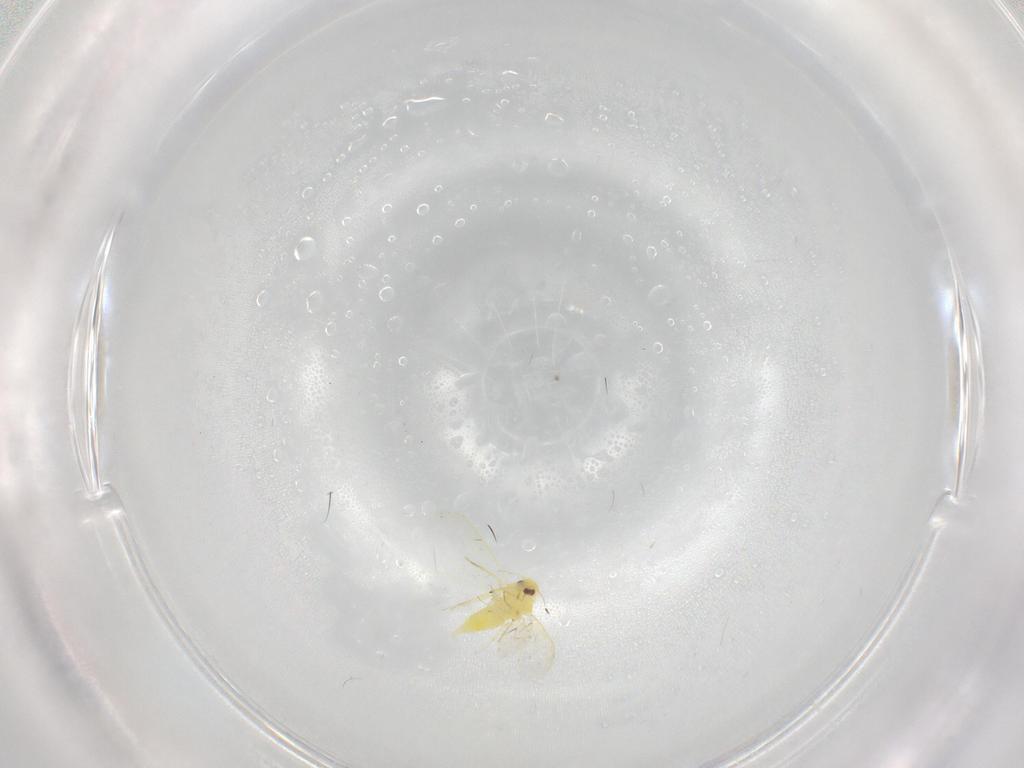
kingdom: Animalia
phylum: Arthropoda
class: Insecta
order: Hemiptera
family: Aleyrodidae
